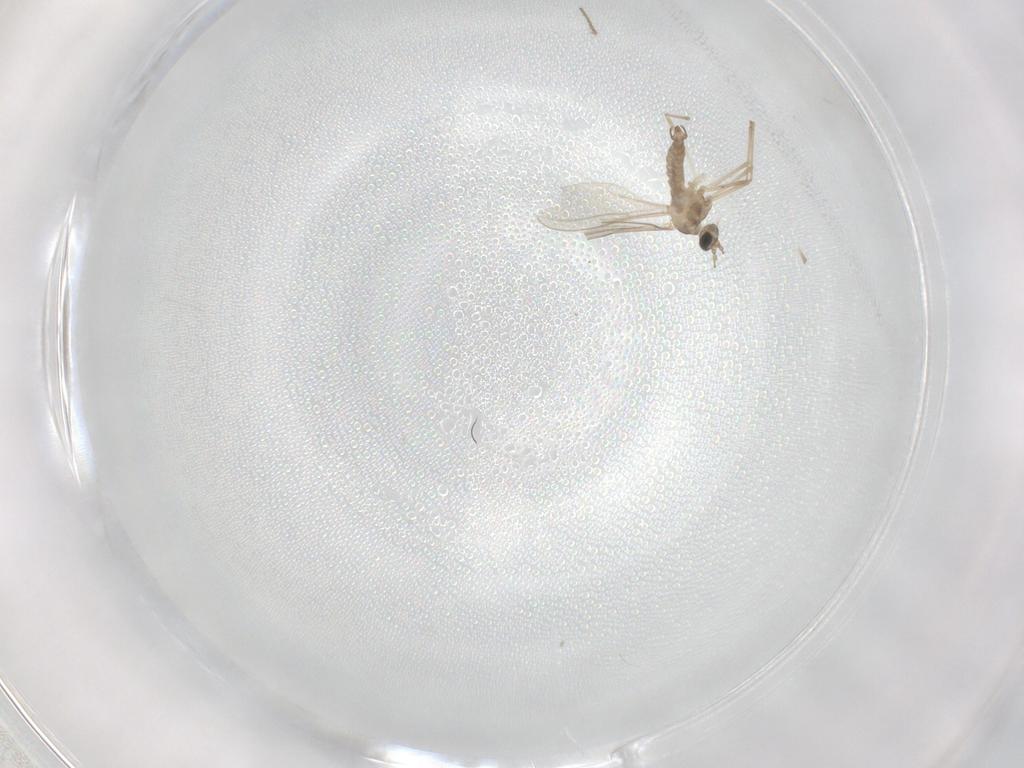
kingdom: Animalia
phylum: Arthropoda
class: Insecta
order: Diptera
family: Cecidomyiidae
